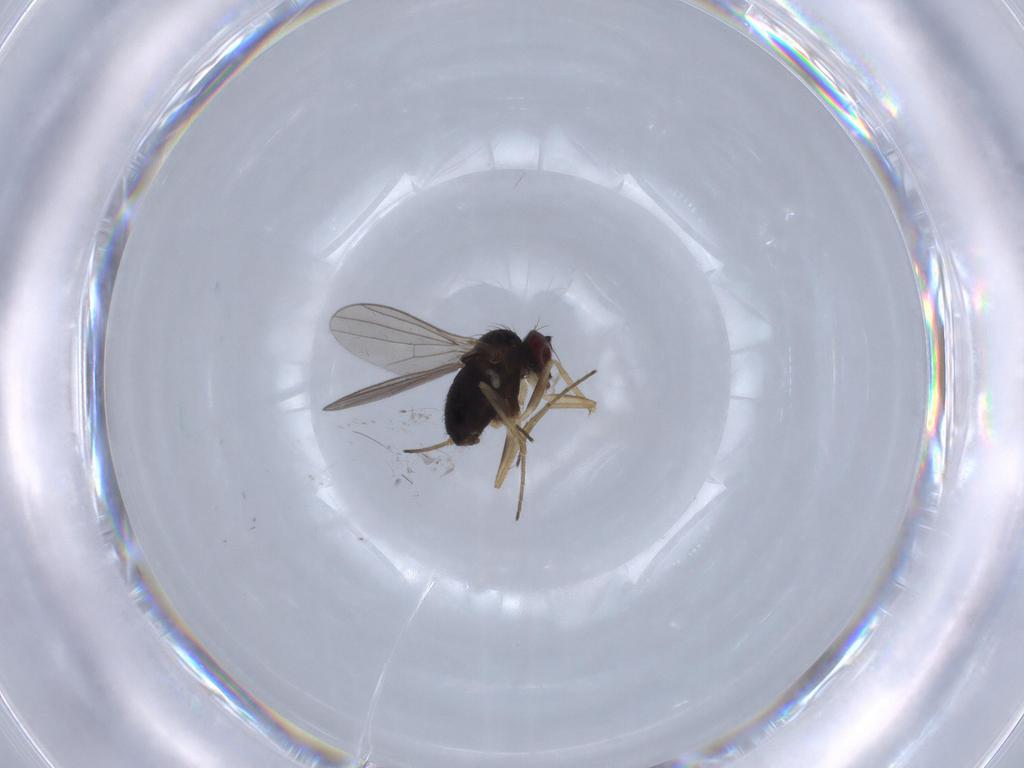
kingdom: Animalia
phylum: Arthropoda
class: Insecta
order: Diptera
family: Dolichopodidae
